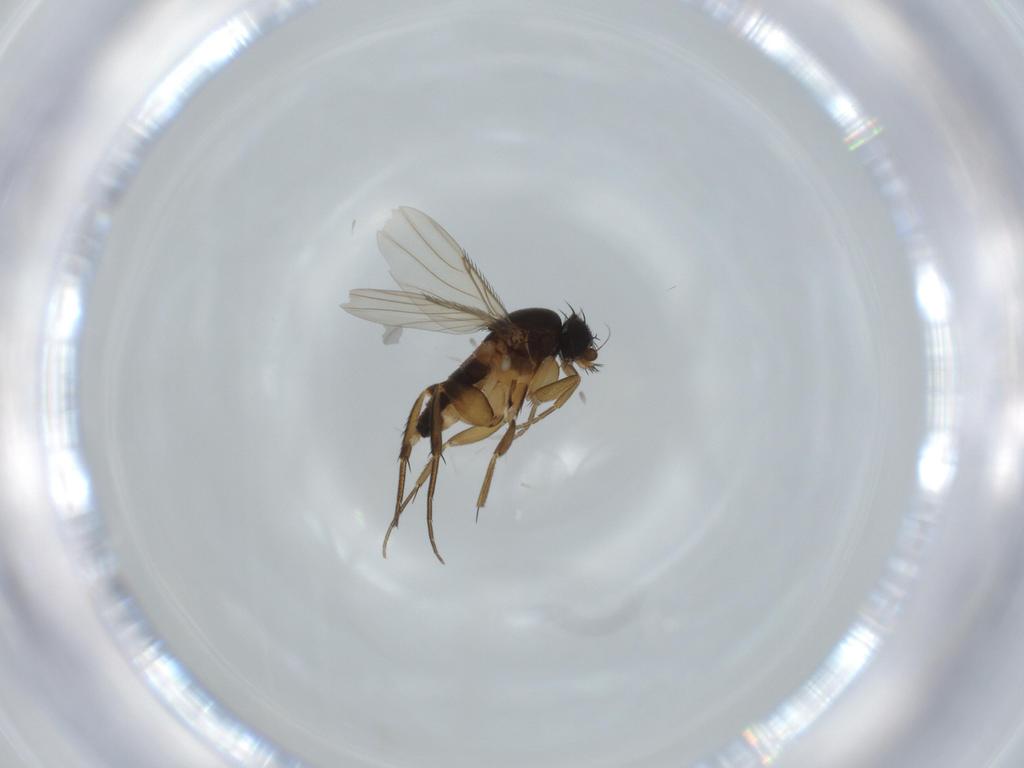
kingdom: Animalia
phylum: Arthropoda
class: Insecta
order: Diptera
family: Phoridae
